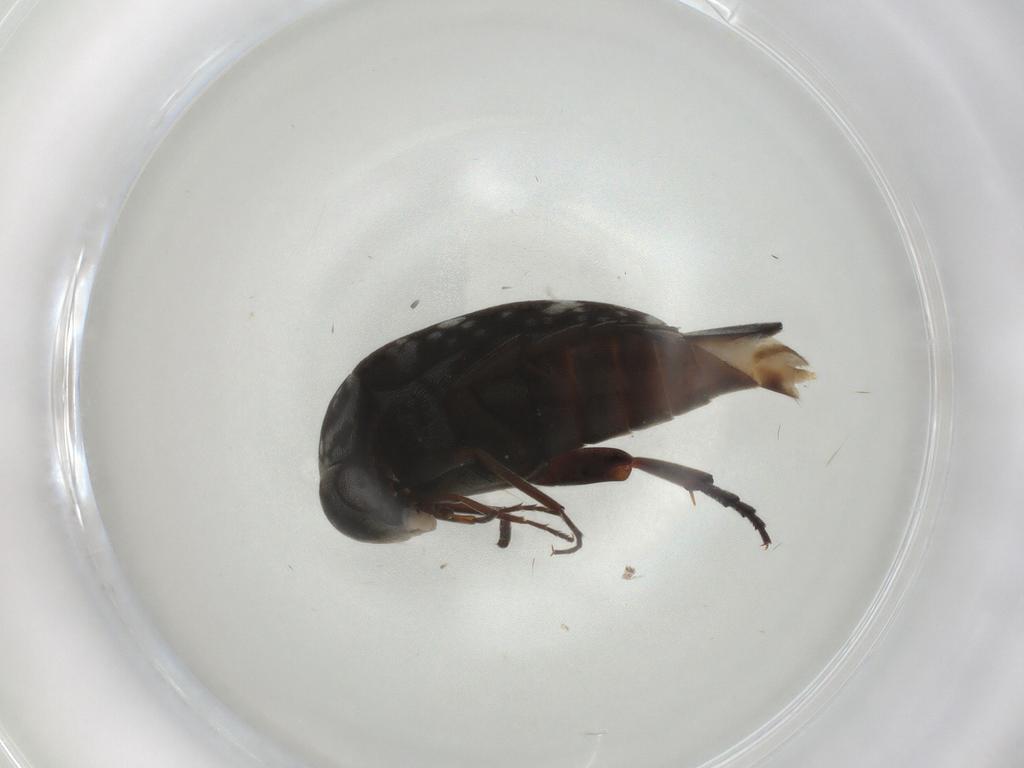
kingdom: Animalia
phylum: Arthropoda
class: Insecta
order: Coleoptera
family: Mordellidae
